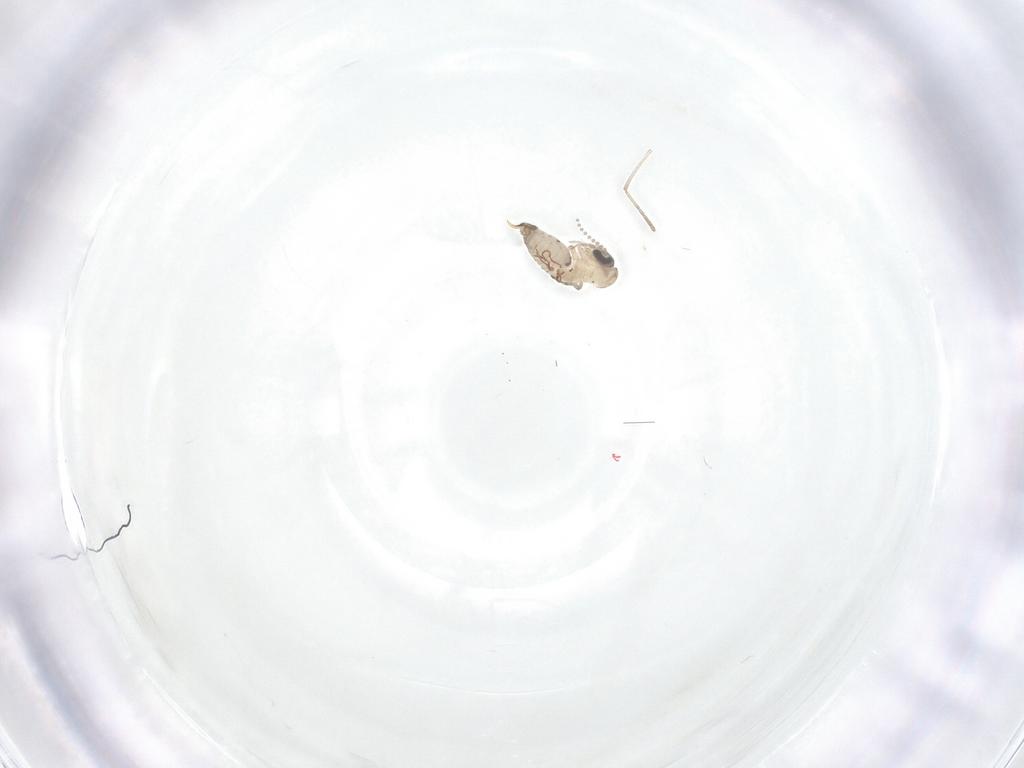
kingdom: Animalia
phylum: Arthropoda
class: Insecta
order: Diptera
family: Psychodidae
